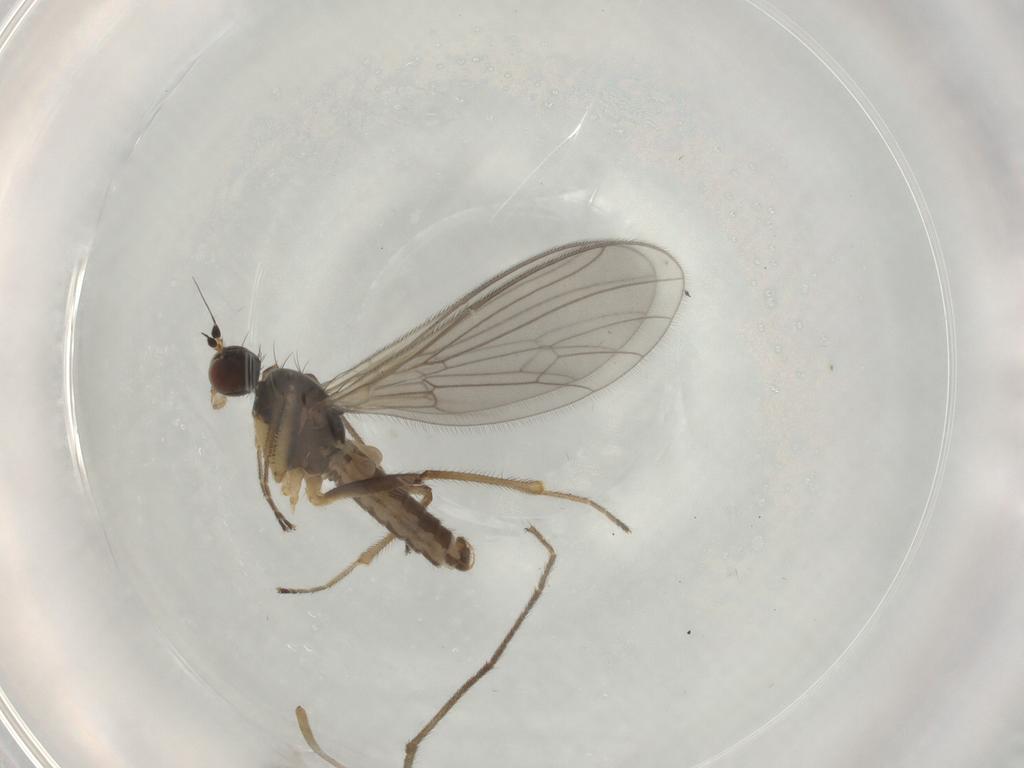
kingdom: Animalia
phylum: Arthropoda
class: Insecta
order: Diptera
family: Empididae
